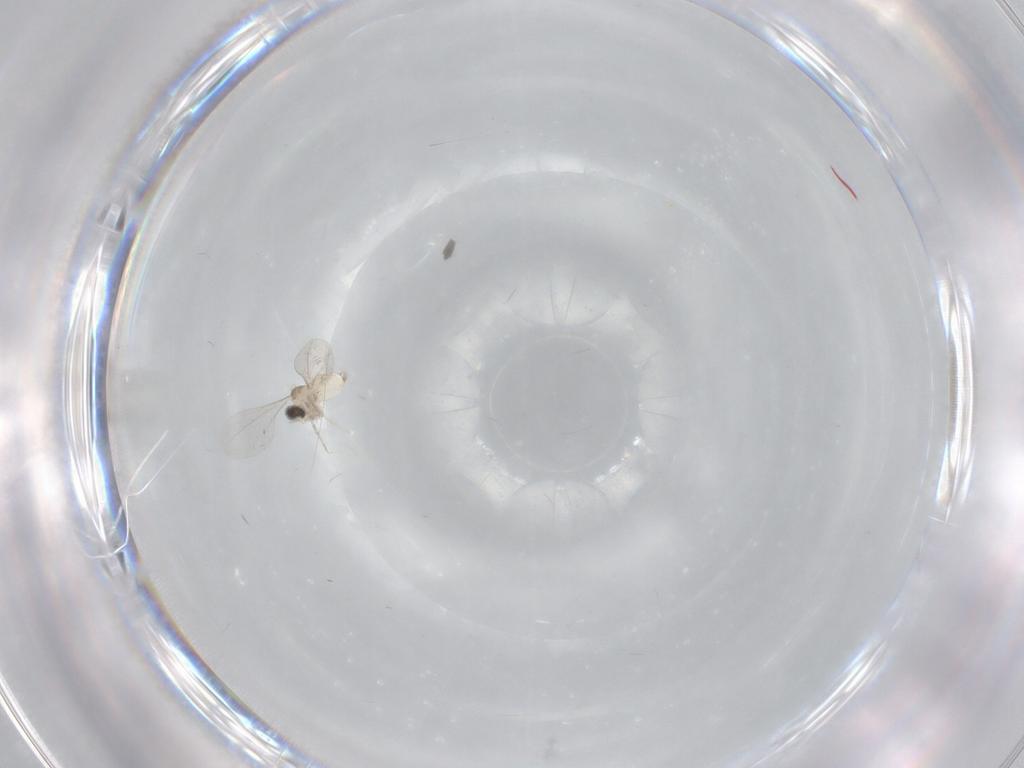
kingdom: Animalia
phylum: Arthropoda
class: Insecta
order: Diptera
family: Cecidomyiidae
